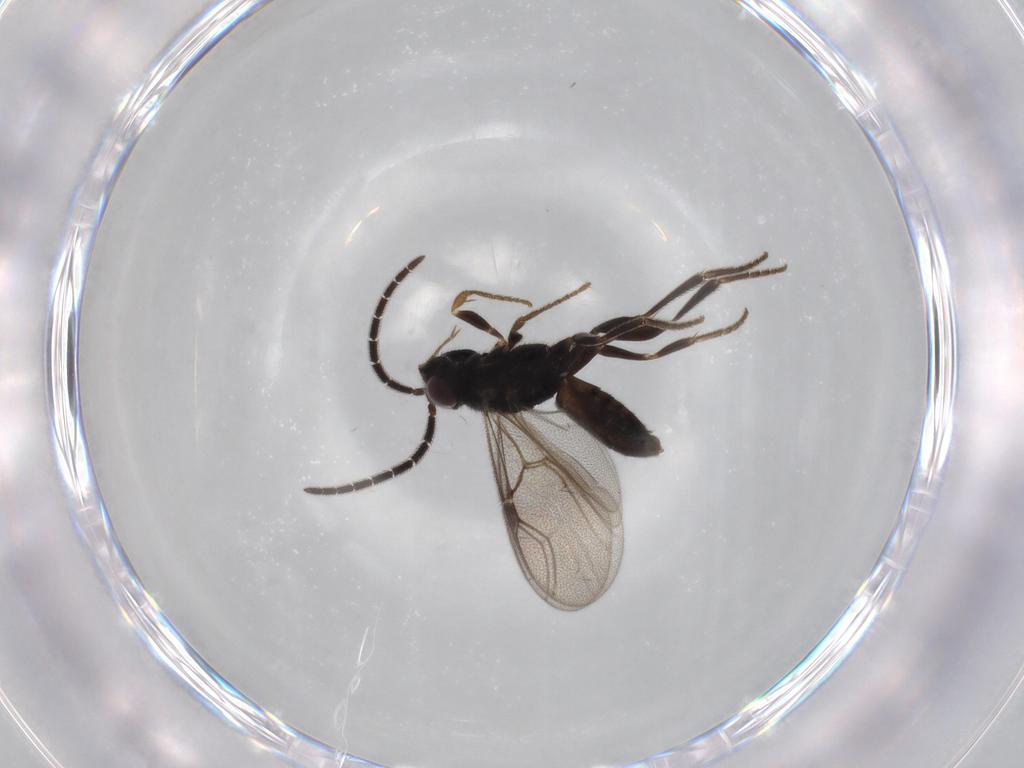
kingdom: Animalia
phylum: Arthropoda
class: Insecta
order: Hymenoptera
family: Dryinidae
